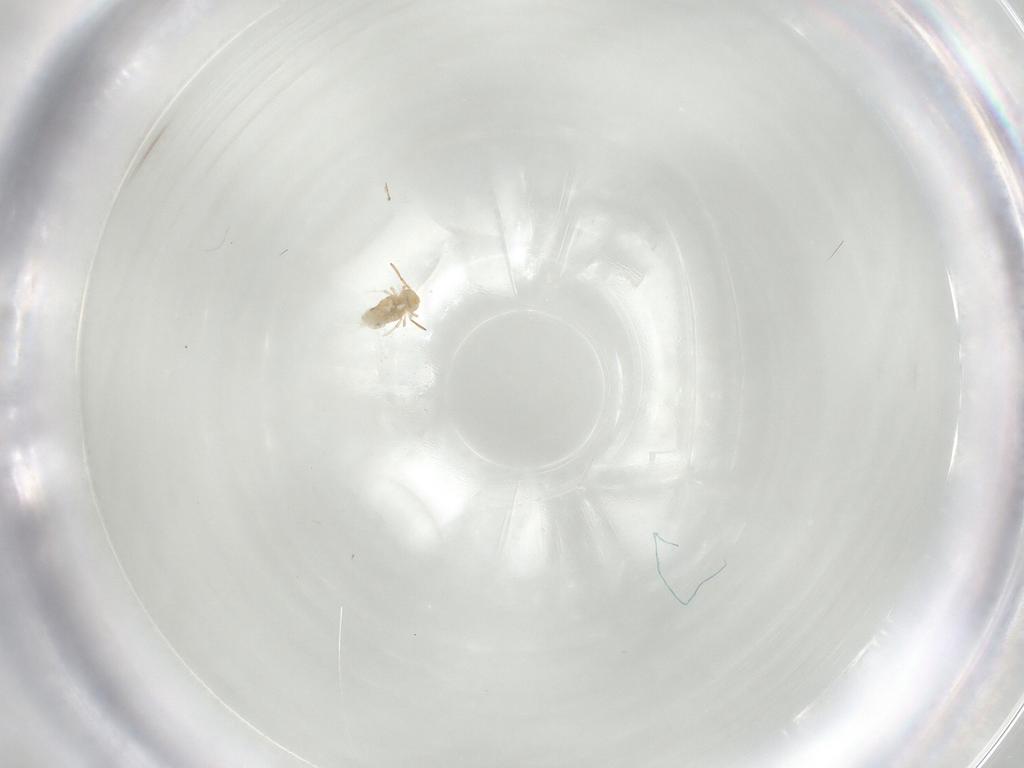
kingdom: Animalia
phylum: Arthropoda
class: Collembola
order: Symphypleona
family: Bourletiellidae
